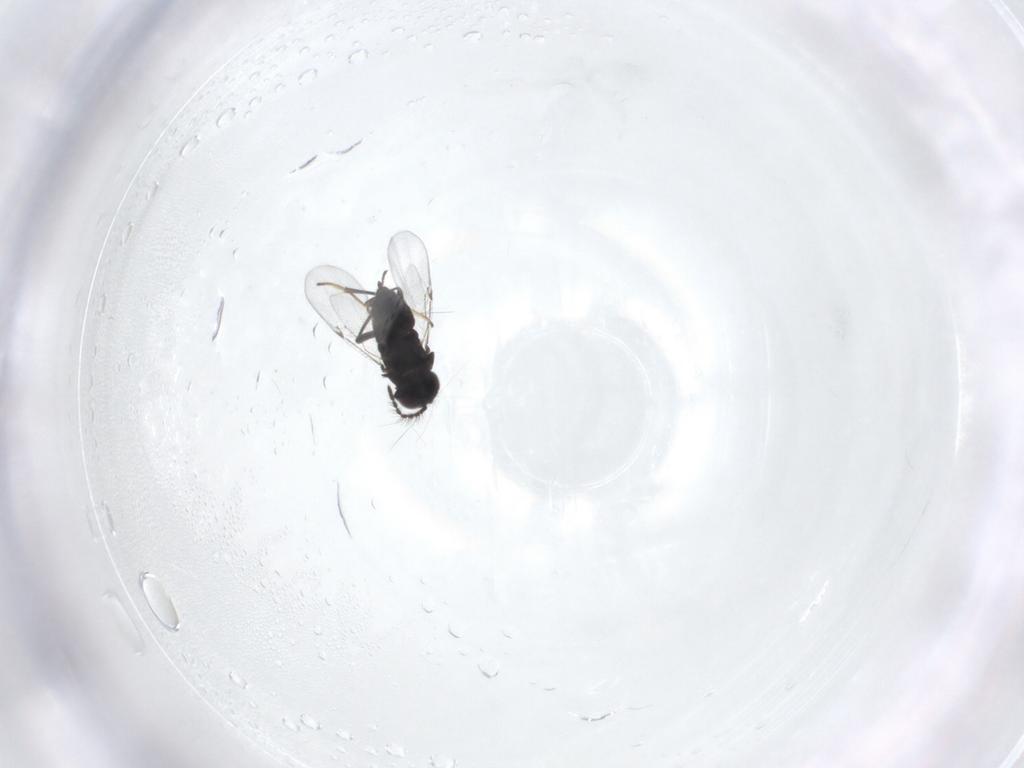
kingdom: Animalia
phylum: Arthropoda
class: Insecta
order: Hymenoptera
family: Encyrtidae
